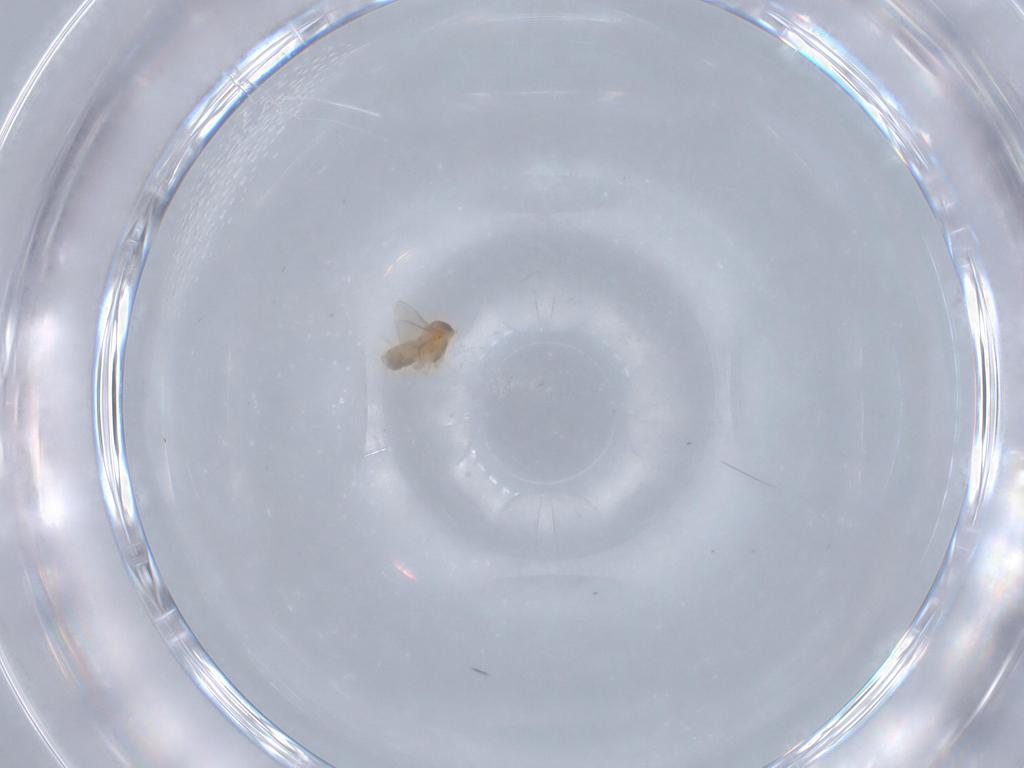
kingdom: Animalia
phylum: Arthropoda
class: Insecta
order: Diptera
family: Cecidomyiidae
